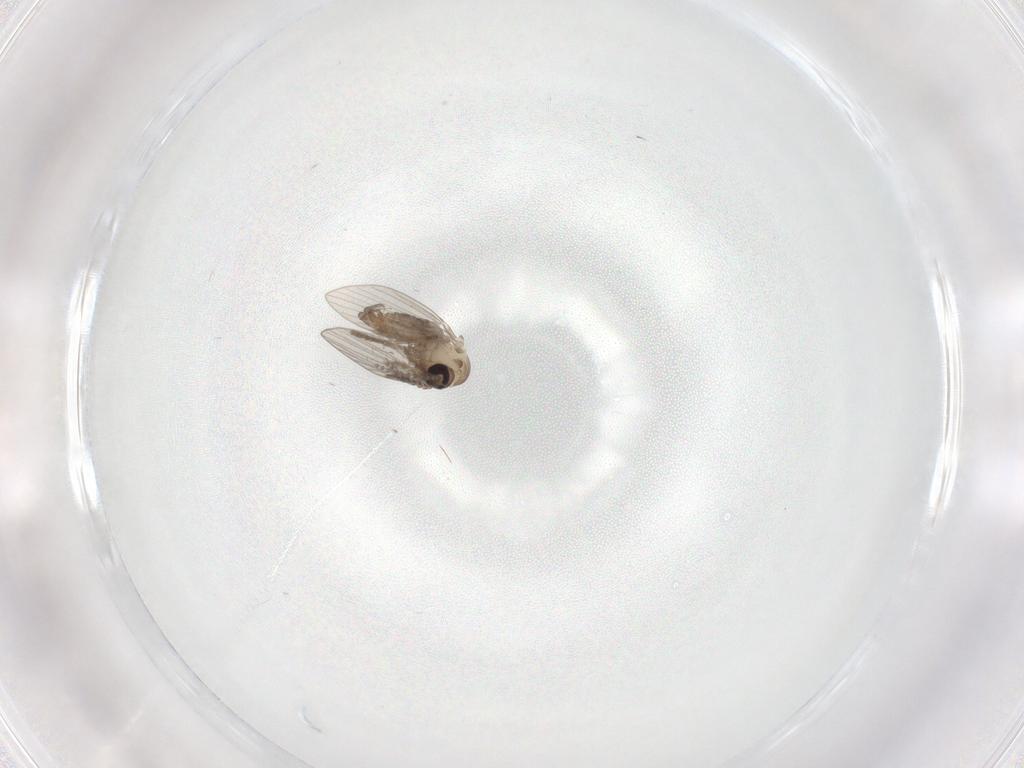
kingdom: Animalia
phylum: Arthropoda
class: Insecta
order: Diptera
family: Psychodidae
